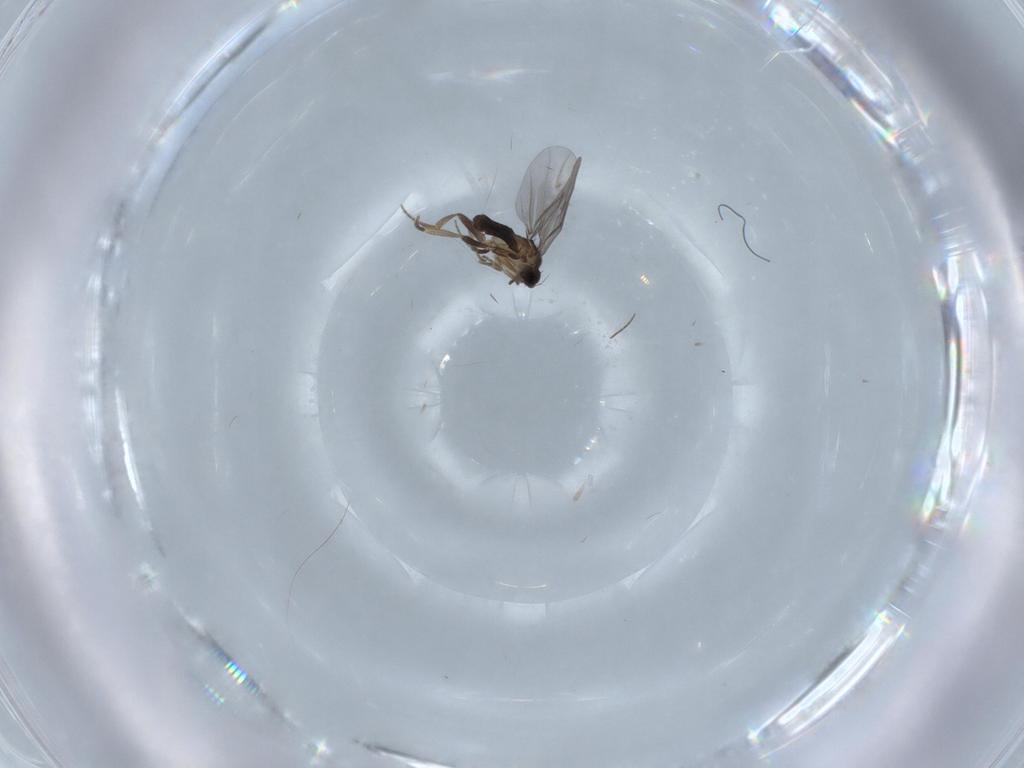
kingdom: Animalia
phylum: Arthropoda
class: Insecta
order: Diptera
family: Chironomidae
